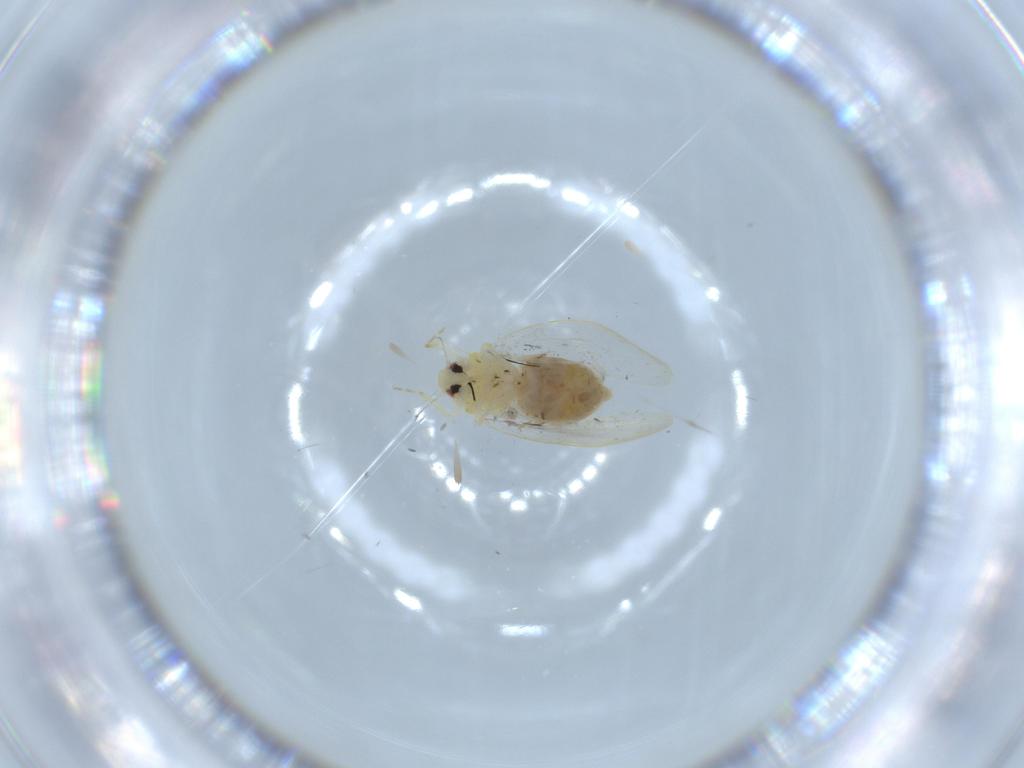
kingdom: Animalia
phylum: Arthropoda
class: Insecta
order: Hemiptera
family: Aleyrodidae
